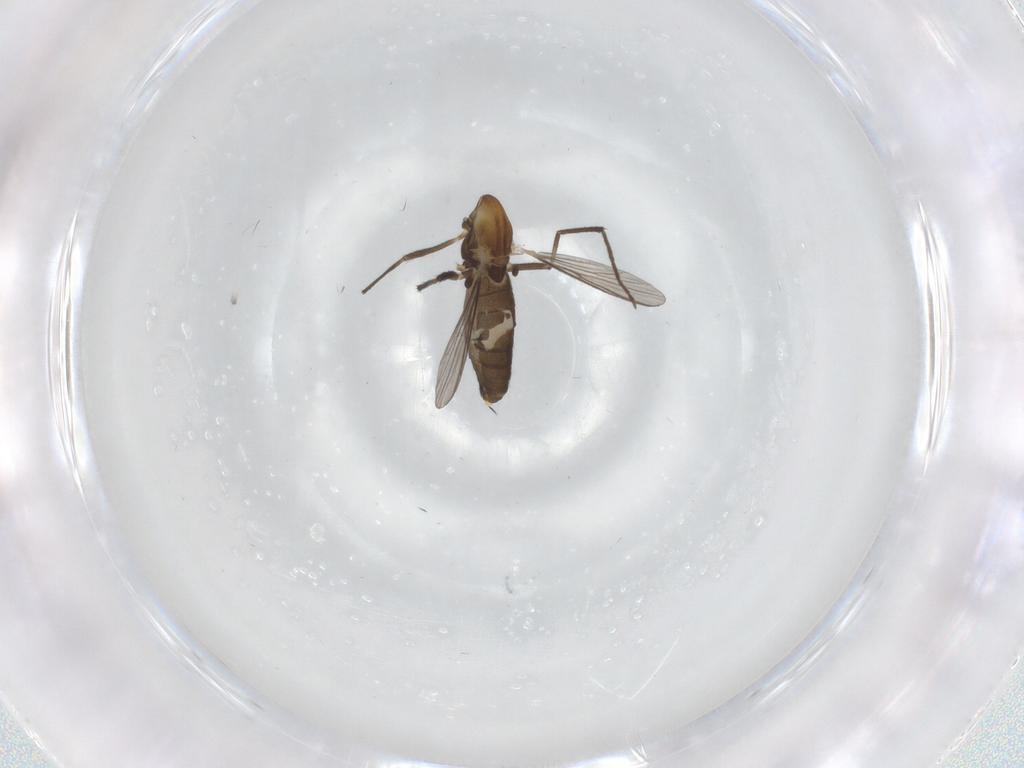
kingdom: Animalia
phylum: Arthropoda
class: Insecta
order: Diptera
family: Chironomidae
